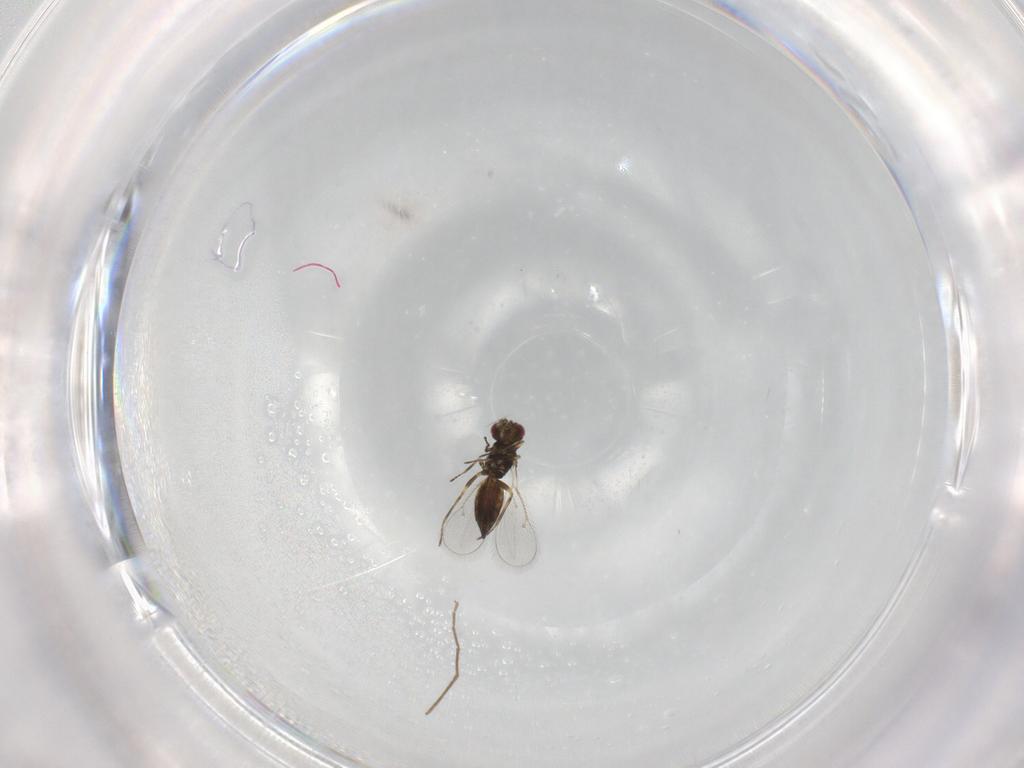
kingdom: Animalia
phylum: Arthropoda
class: Insecta
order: Hymenoptera
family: Eulophidae
